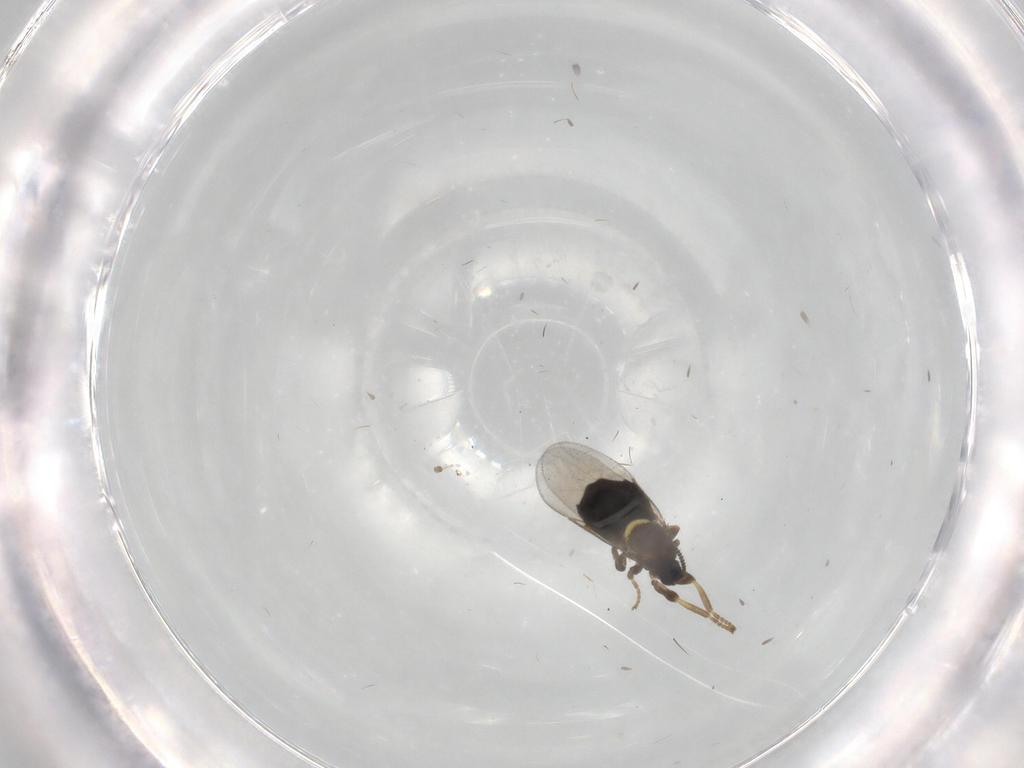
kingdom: Animalia
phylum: Arthropoda
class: Insecta
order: Diptera
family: Scatopsidae
